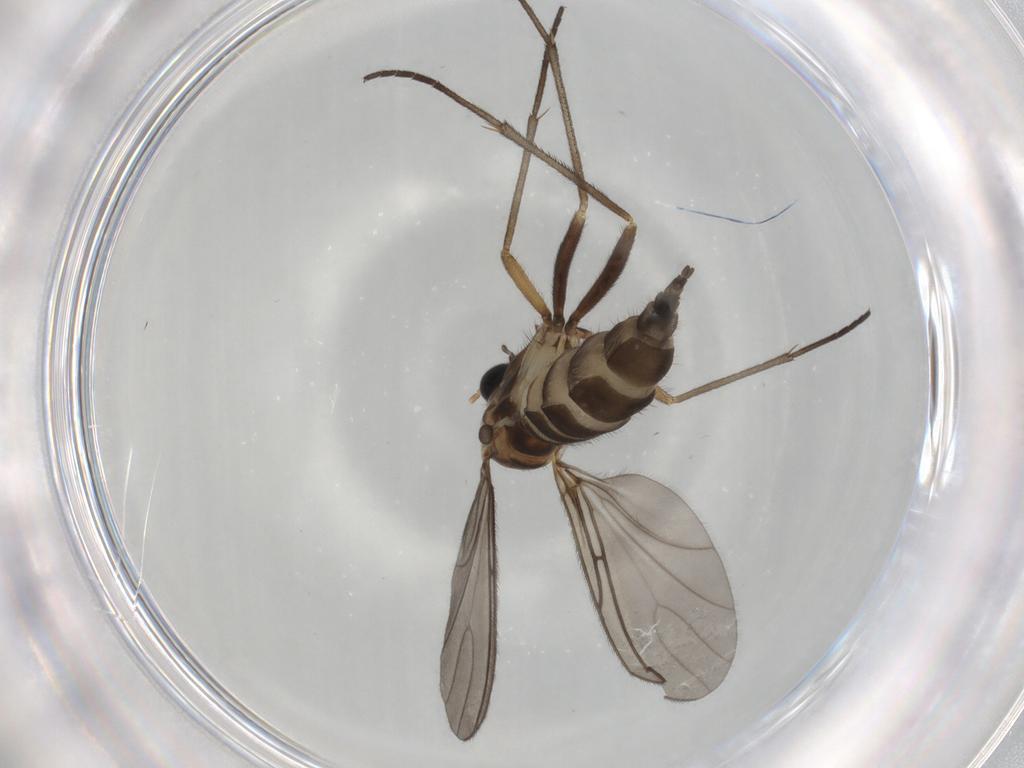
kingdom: Animalia
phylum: Arthropoda
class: Insecta
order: Diptera
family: Sciaridae
